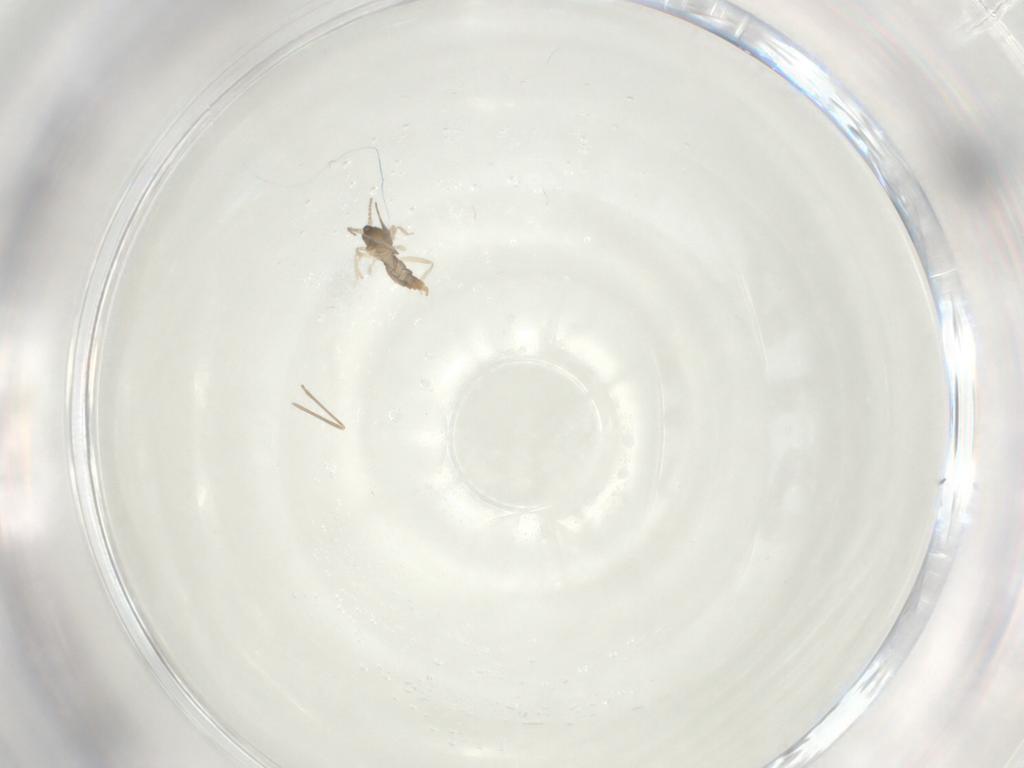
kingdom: Animalia
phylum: Arthropoda
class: Insecta
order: Diptera
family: Cecidomyiidae
